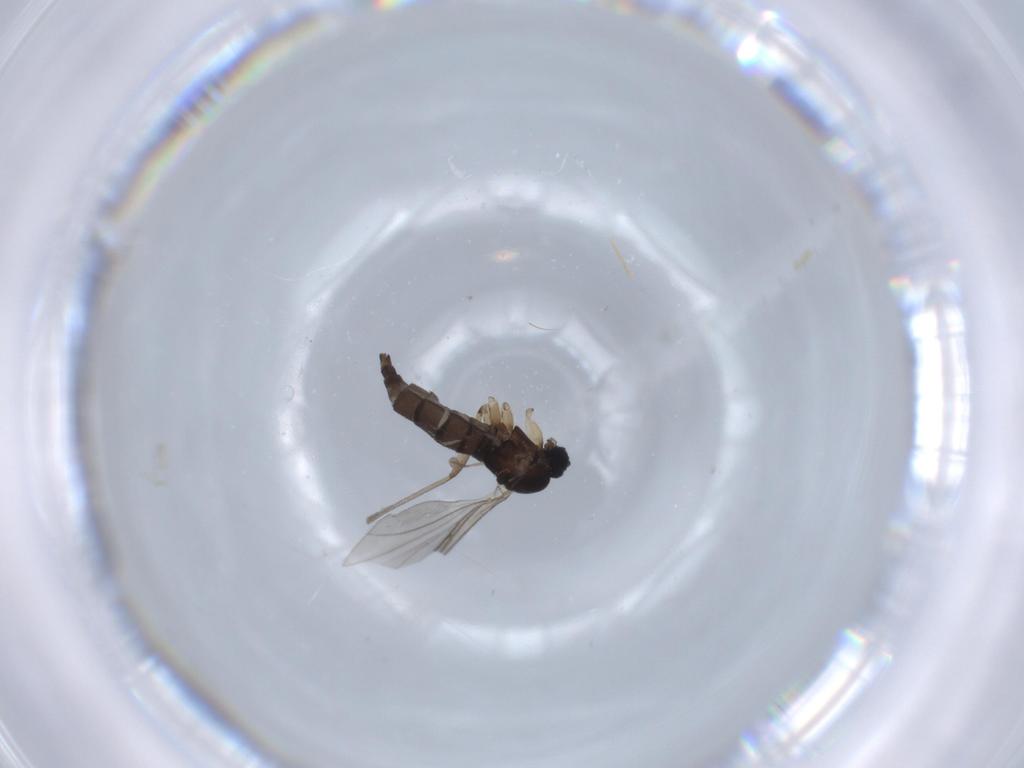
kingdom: Animalia
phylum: Arthropoda
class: Insecta
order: Diptera
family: Sciaridae
